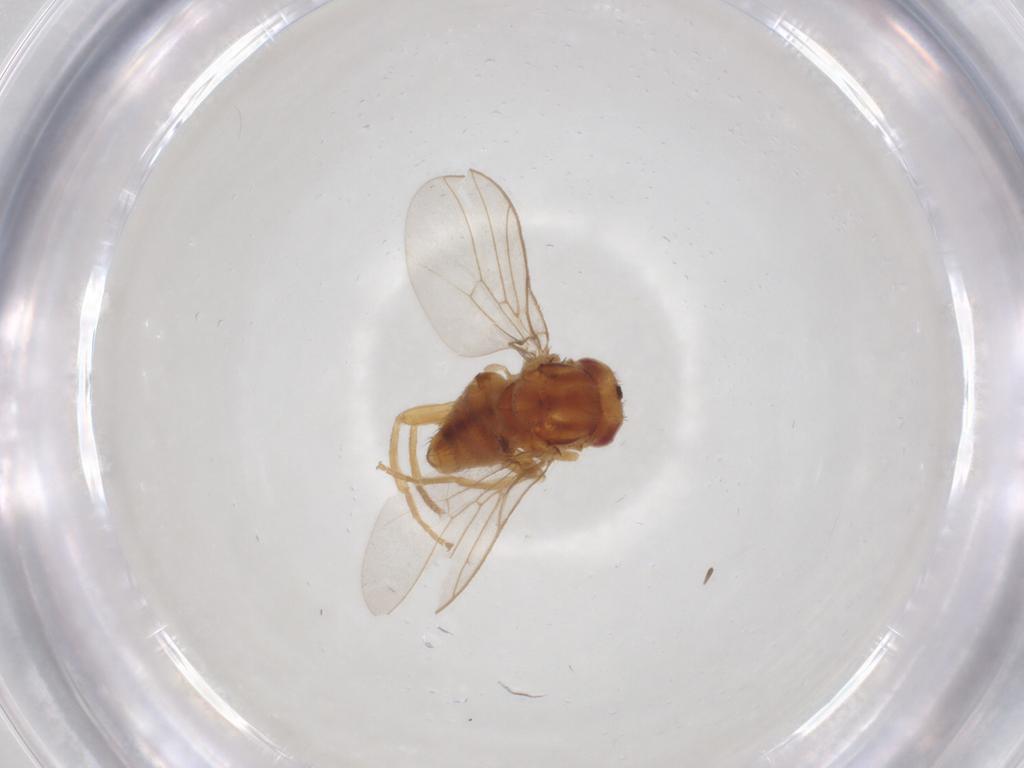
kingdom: Animalia
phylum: Arthropoda
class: Insecta
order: Diptera
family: Chloropidae
